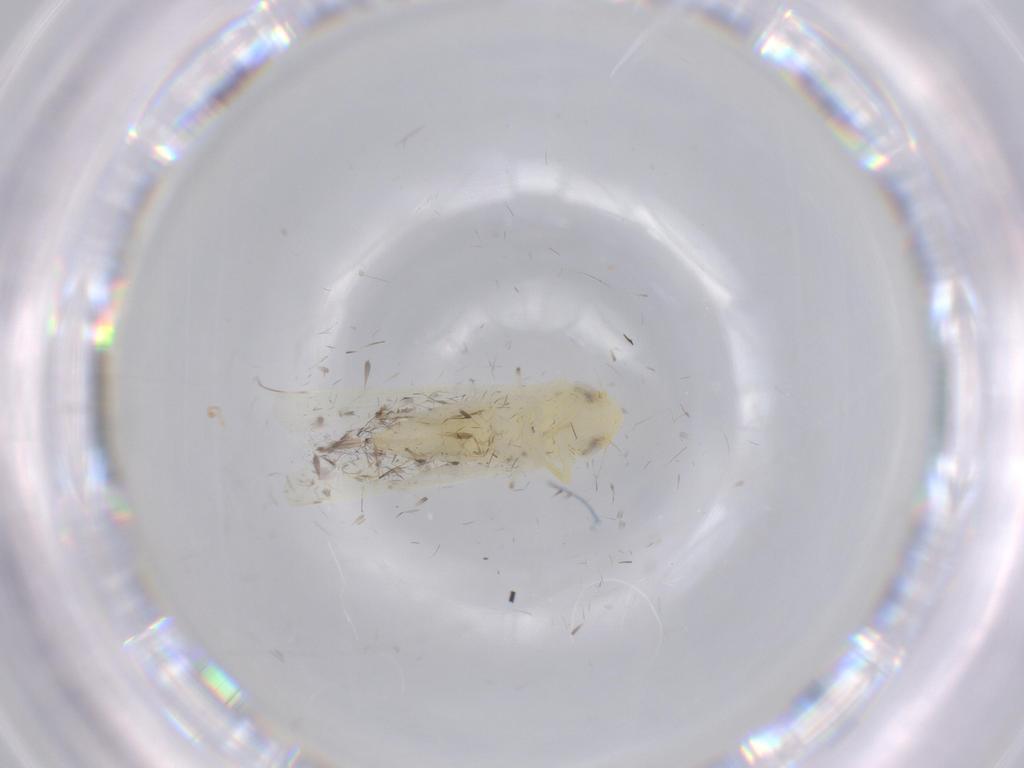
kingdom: Animalia
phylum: Arthropoda
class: Insecta
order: Hemiptera
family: Cicadellidae
